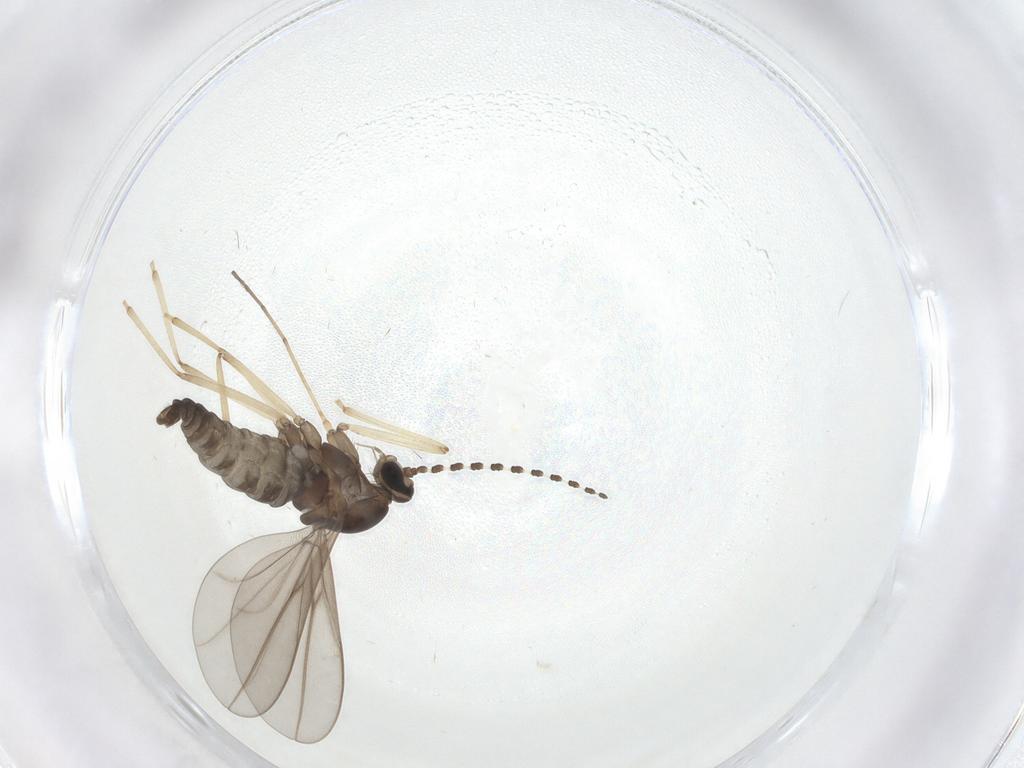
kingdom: Animalia
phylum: Arthropoda
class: Insecta
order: Diptera
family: Cecidomyiidae
